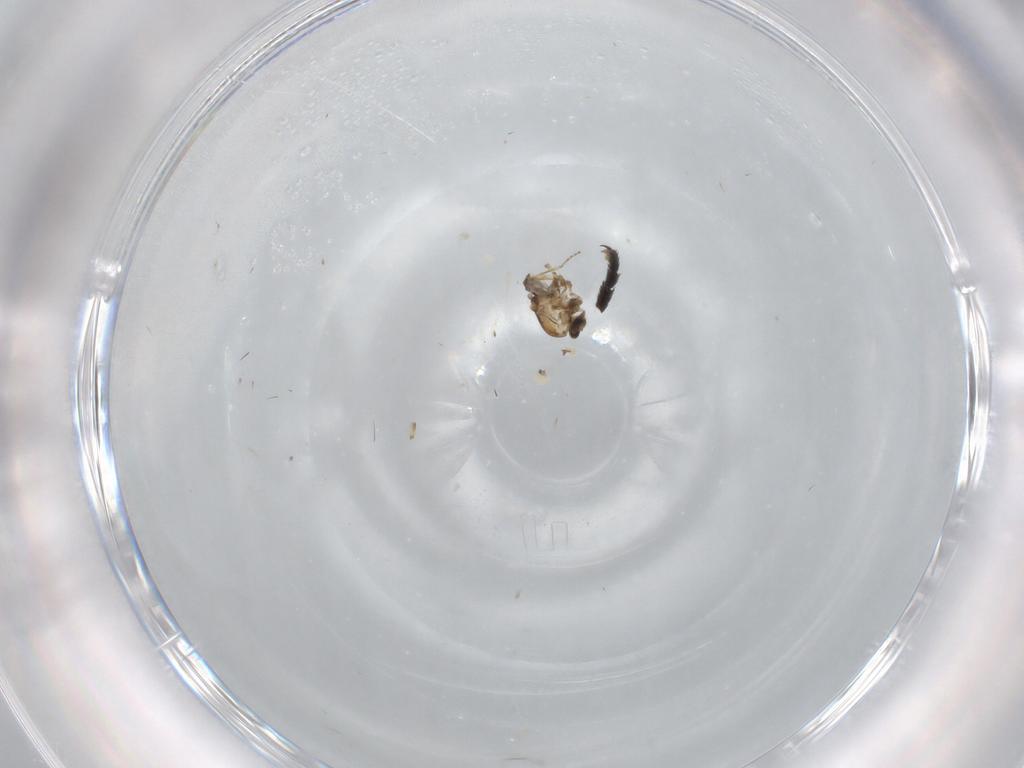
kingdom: Animalia
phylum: Arthropoda
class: Insecta
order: Diptera
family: Ceratopogonidae
